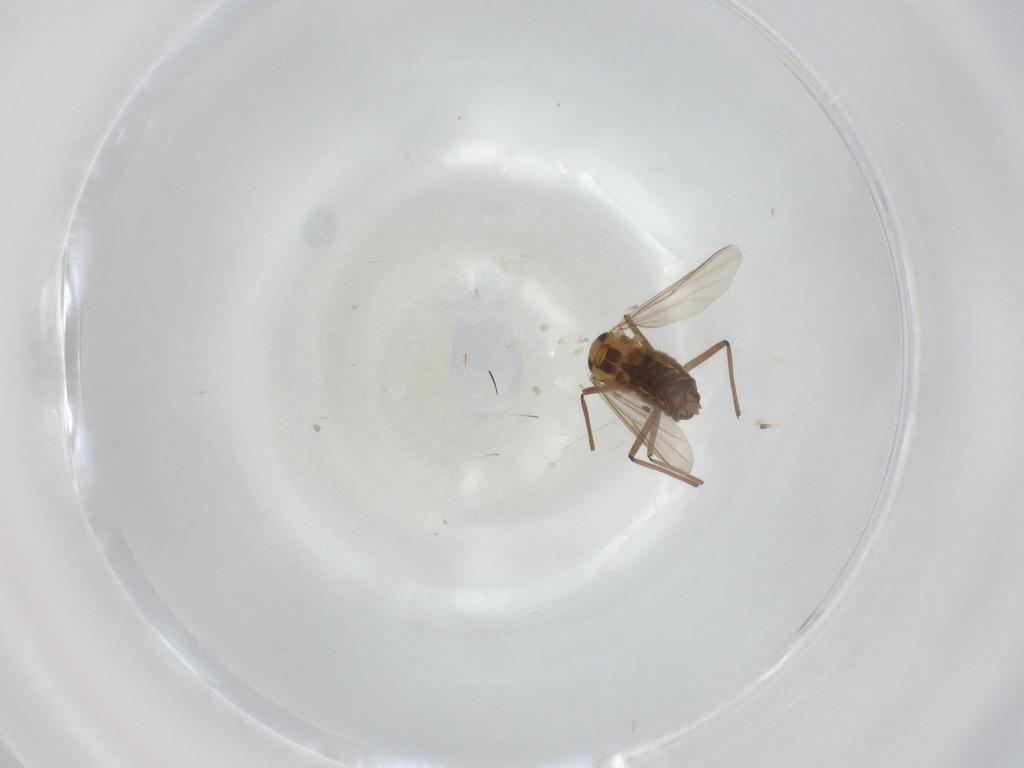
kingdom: Animalia
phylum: Arthropoda
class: Insecta
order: Diptera
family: Chironomidae
